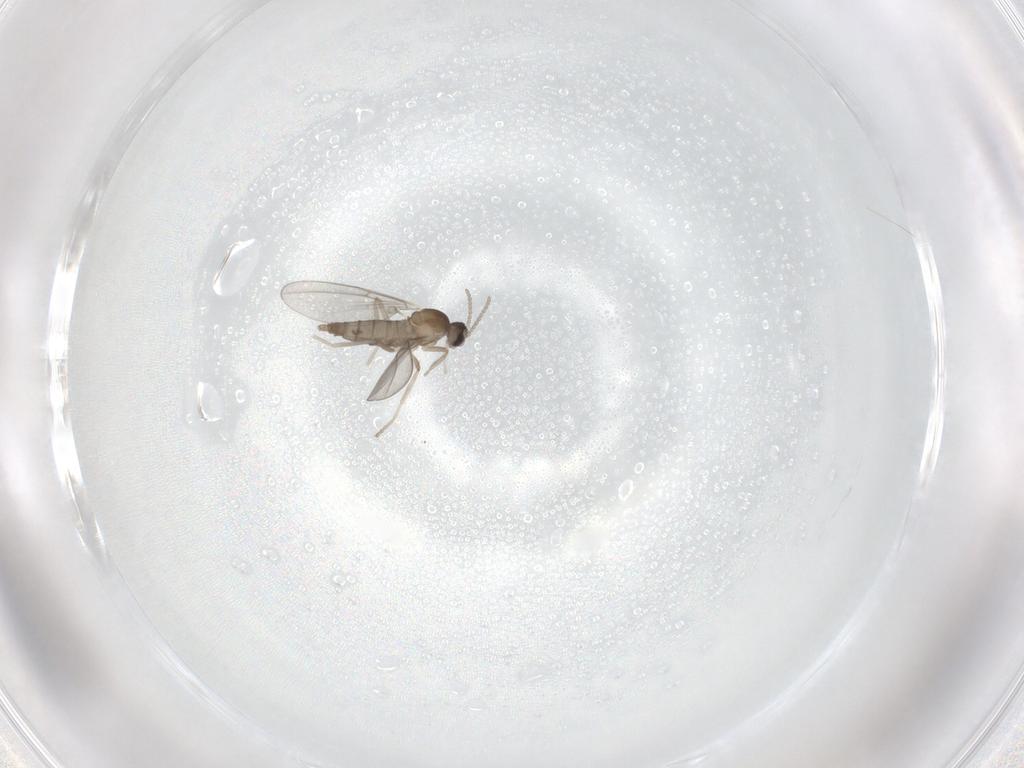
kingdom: Animalia
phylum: Arthropoda
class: Insecta
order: Diptera
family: Cecidomyiidae
